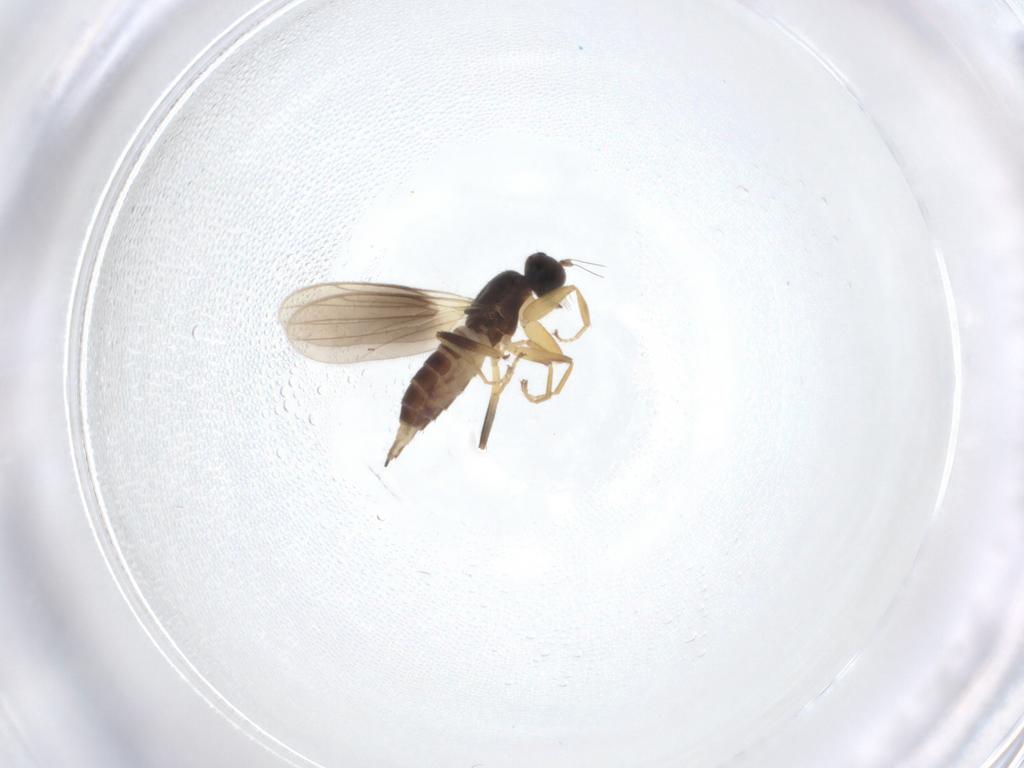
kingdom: Animalia
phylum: Arthropoda
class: Insecta
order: Diptera
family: Hybotidae
